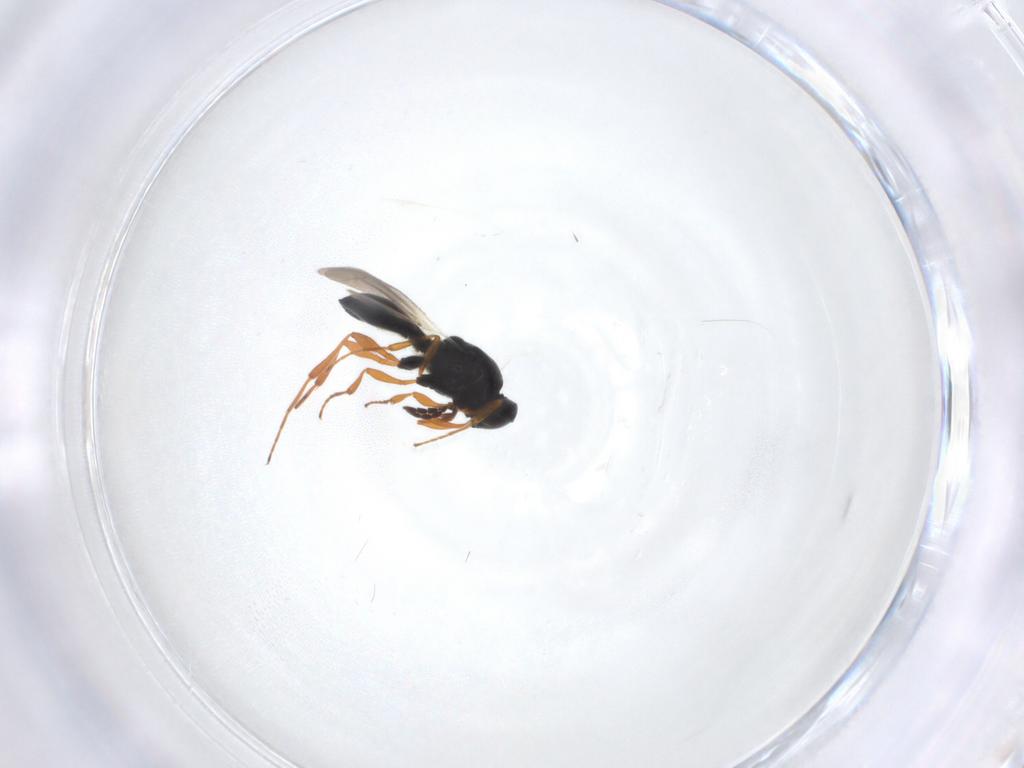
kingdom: Animalia
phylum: Arthropoda
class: Insecta
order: Hymenoptera
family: Platygastridae
